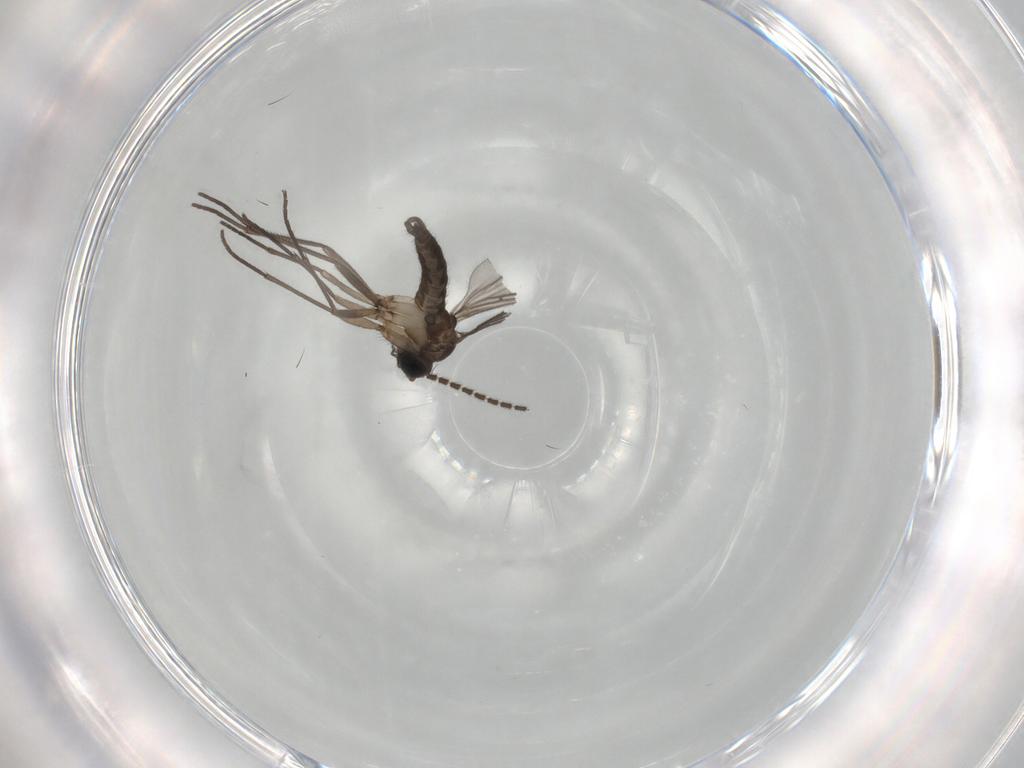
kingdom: Animalia
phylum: Arthropoda
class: Insecta
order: Diptera
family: Sciaridae
